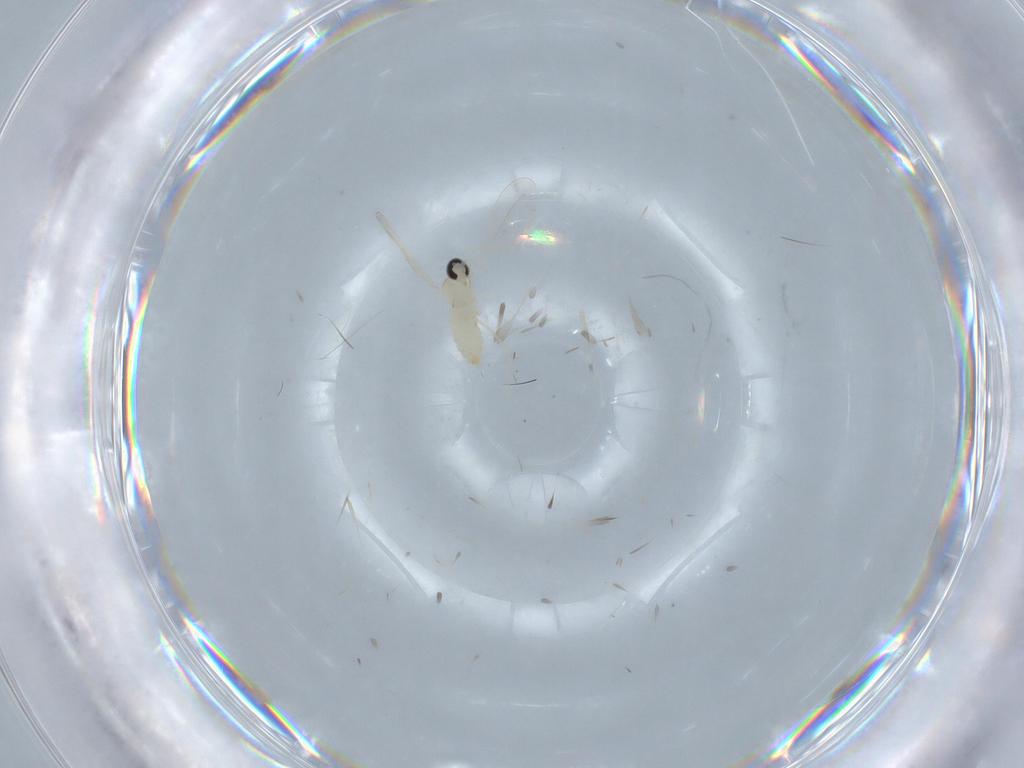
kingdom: Animalia
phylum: Arthropoda
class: Insecta
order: Diptera
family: Cecidomyiidae
